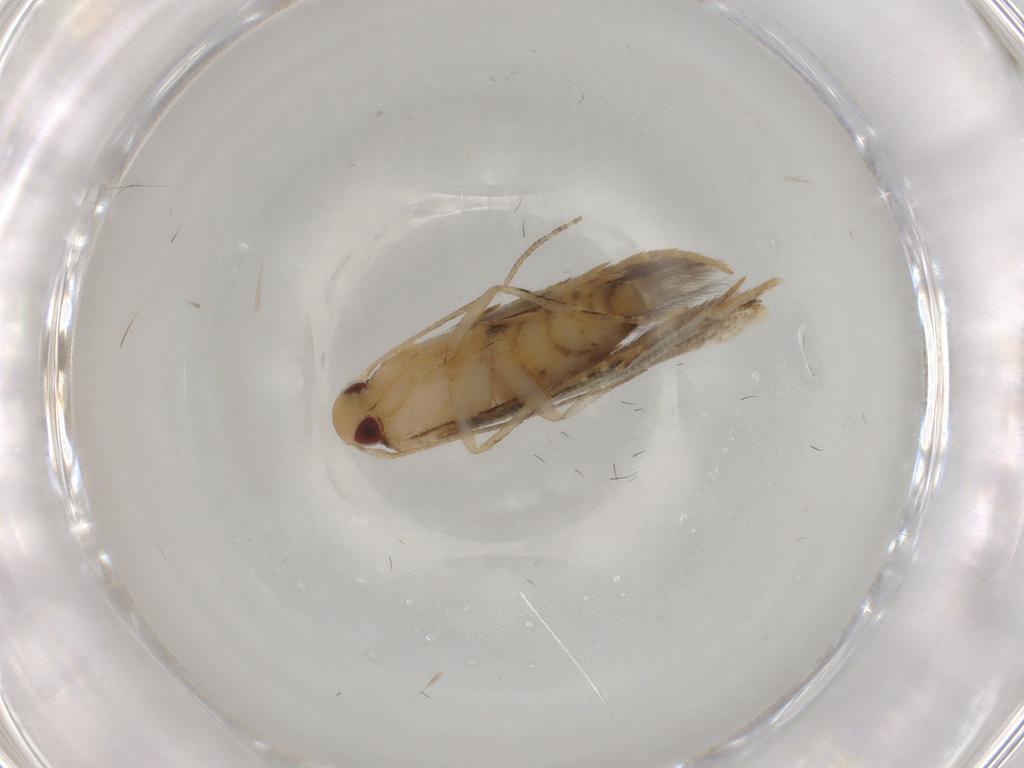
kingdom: Animalia
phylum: Arthropoda
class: Insecta
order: Lepidoptera
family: Momphidae
